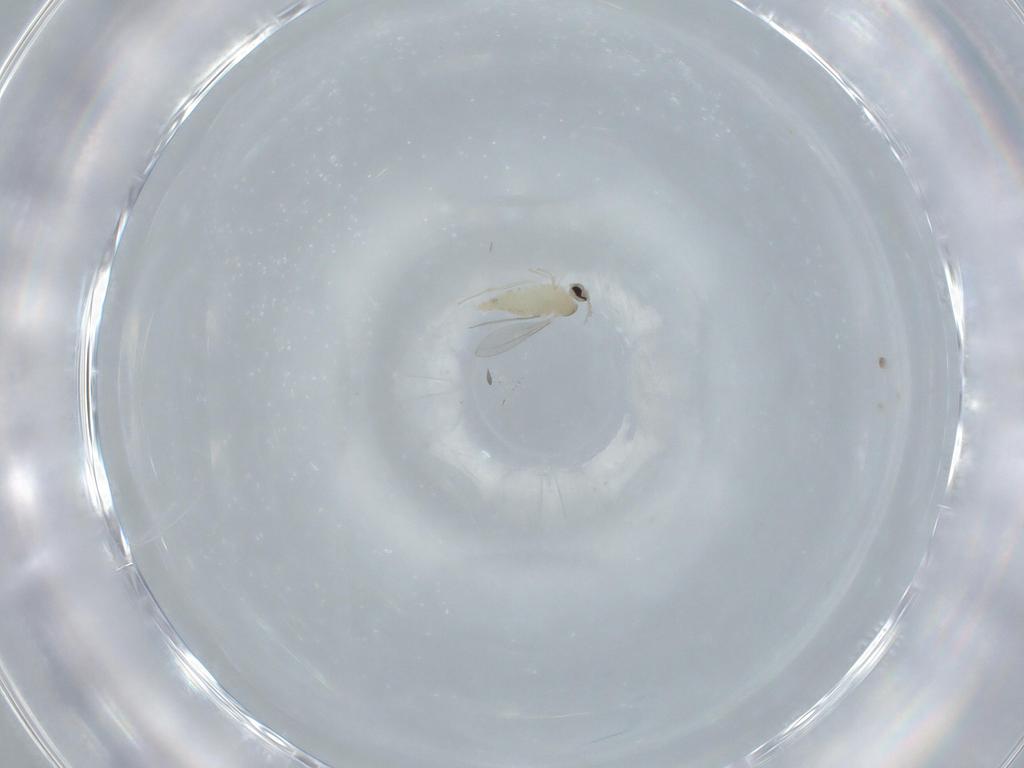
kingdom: Animalia
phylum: Arthropoda
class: Insecta
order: Diptera
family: Cecidomyiidae
